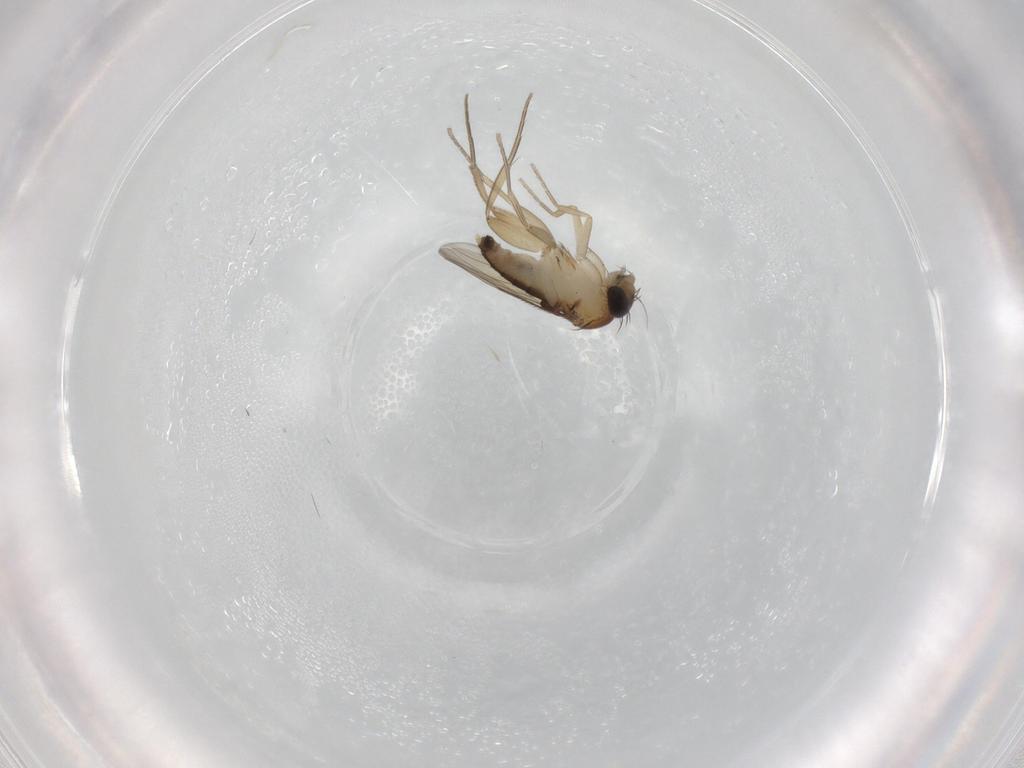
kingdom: Animalia
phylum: Arthropoda
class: Insecta
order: Diptera
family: Phoridae
